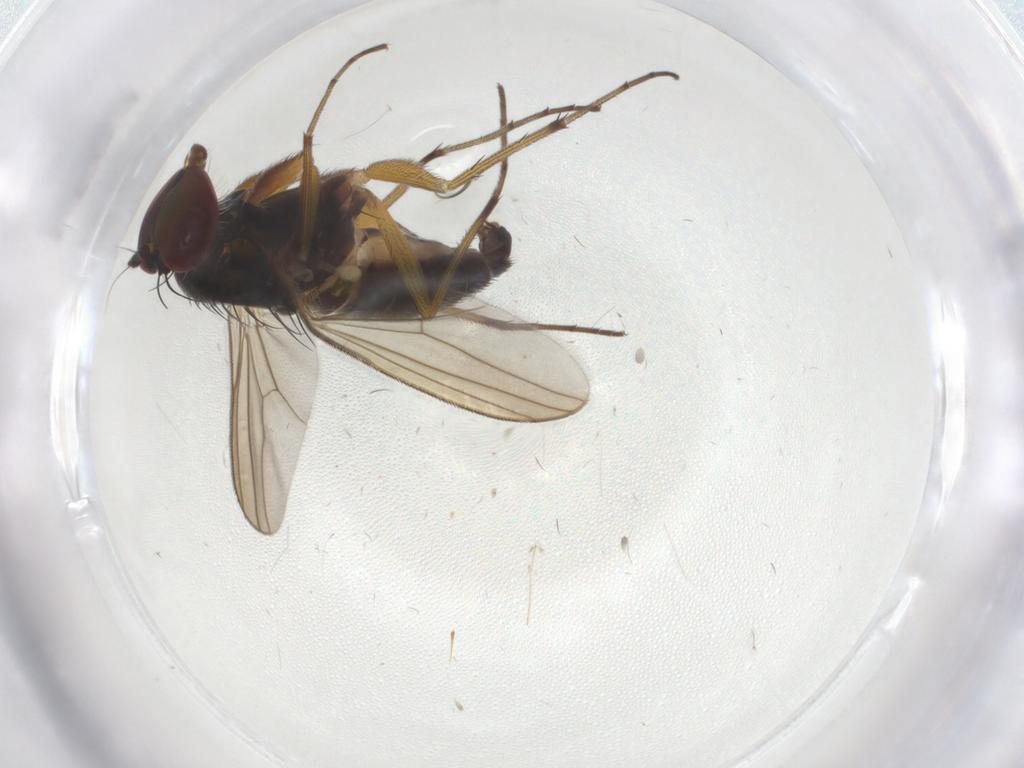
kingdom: Animalia
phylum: Arthropoda
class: Insecta
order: Diptera
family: Dolichopodidae
